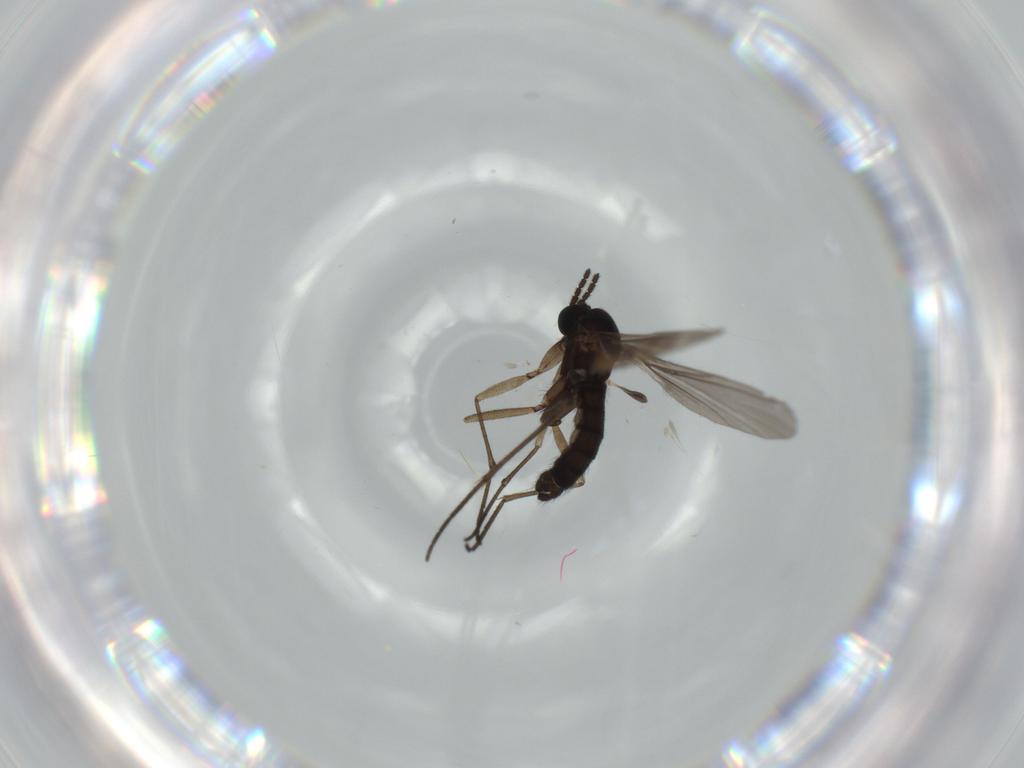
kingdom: Animalia
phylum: Arthropoda
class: Insecta
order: Diptera
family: Sciaridae
